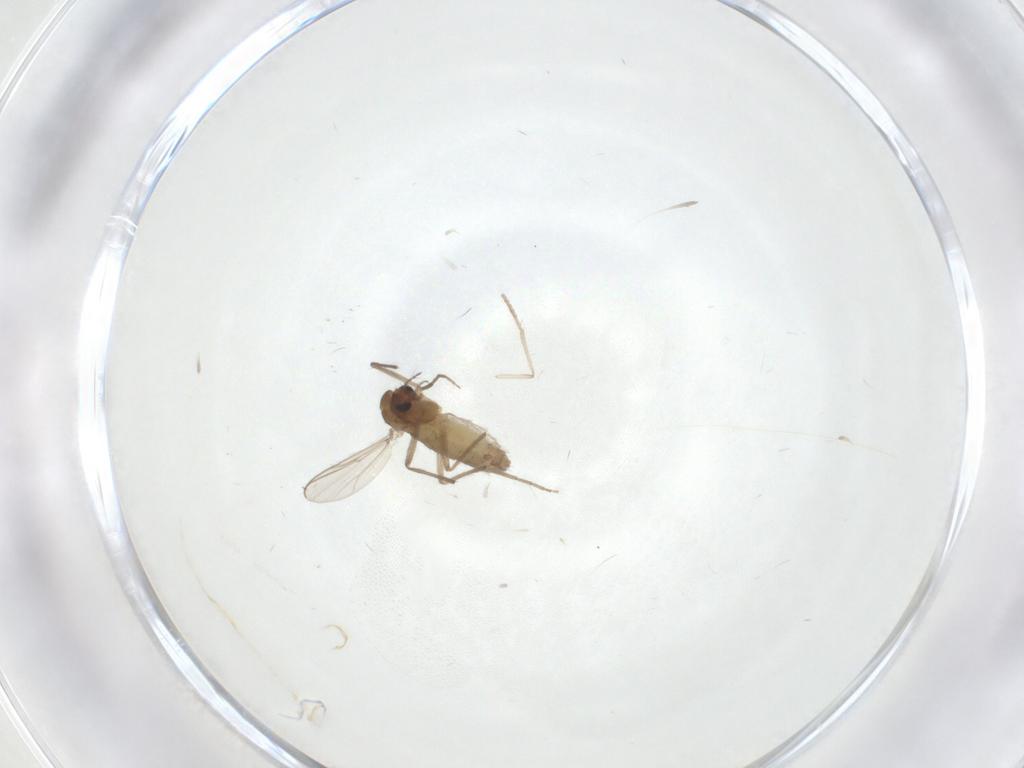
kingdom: Animalia
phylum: Arthropoda
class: Insecta
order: Diptera
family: Chironomidae
